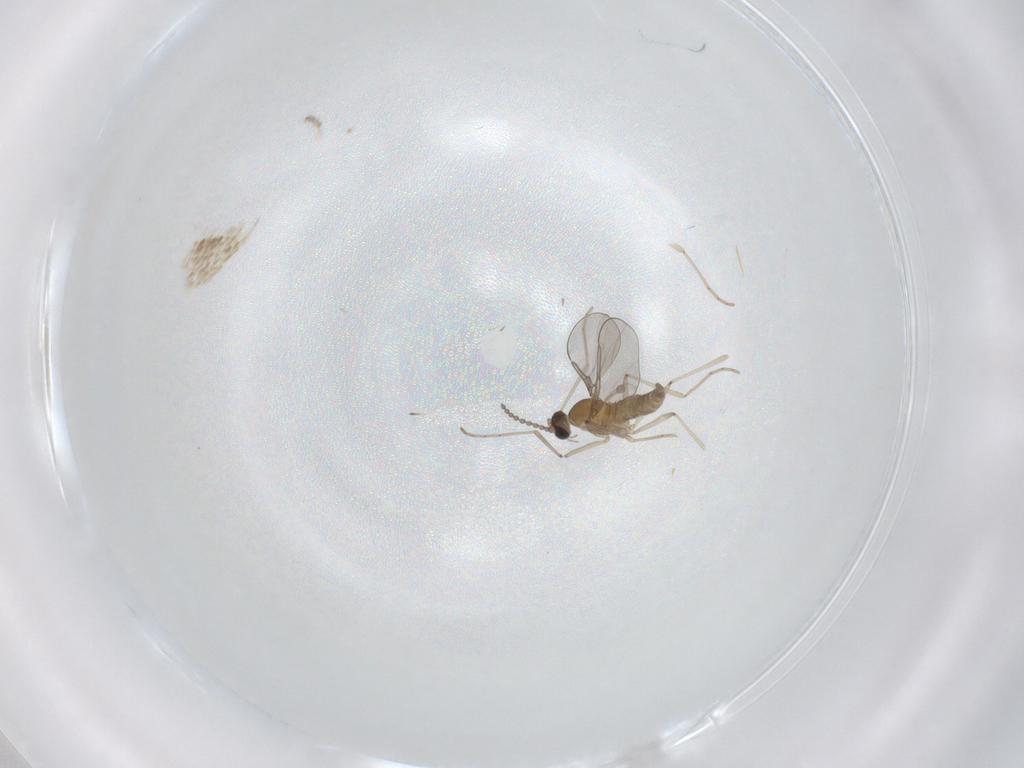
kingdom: Animalia
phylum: Arthropoda
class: Insecta
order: Diptera
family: Cecidomyiidae
